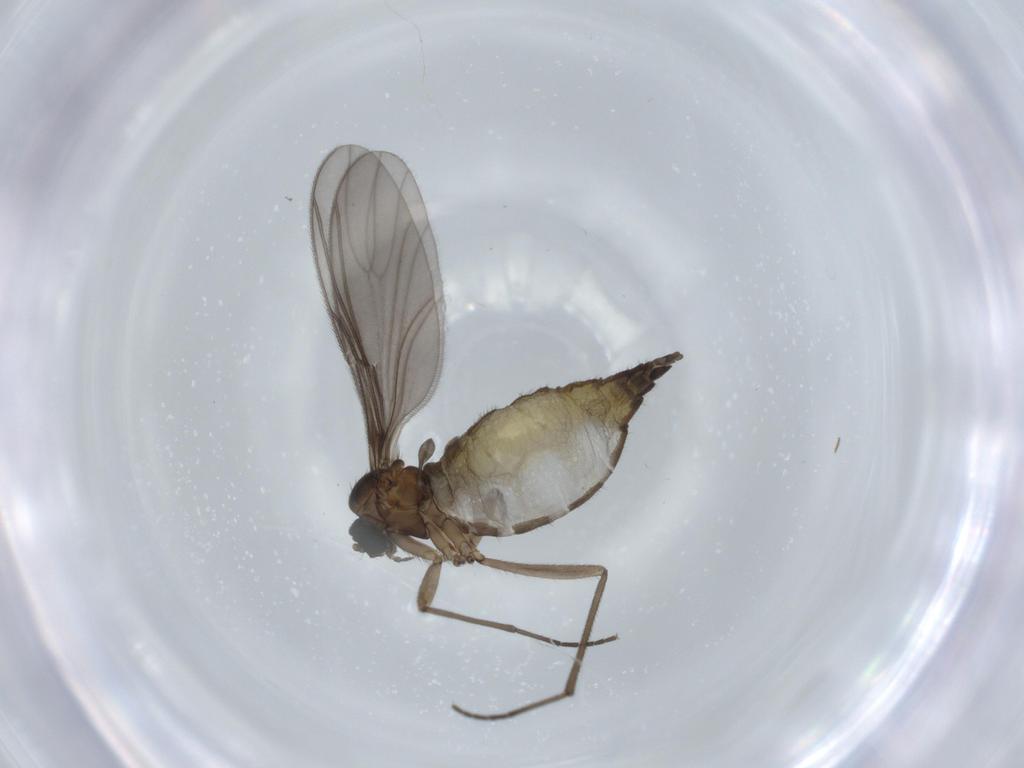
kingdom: Animalia
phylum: Arthropoda
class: Insecta
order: Diptera
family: Sciaridae
